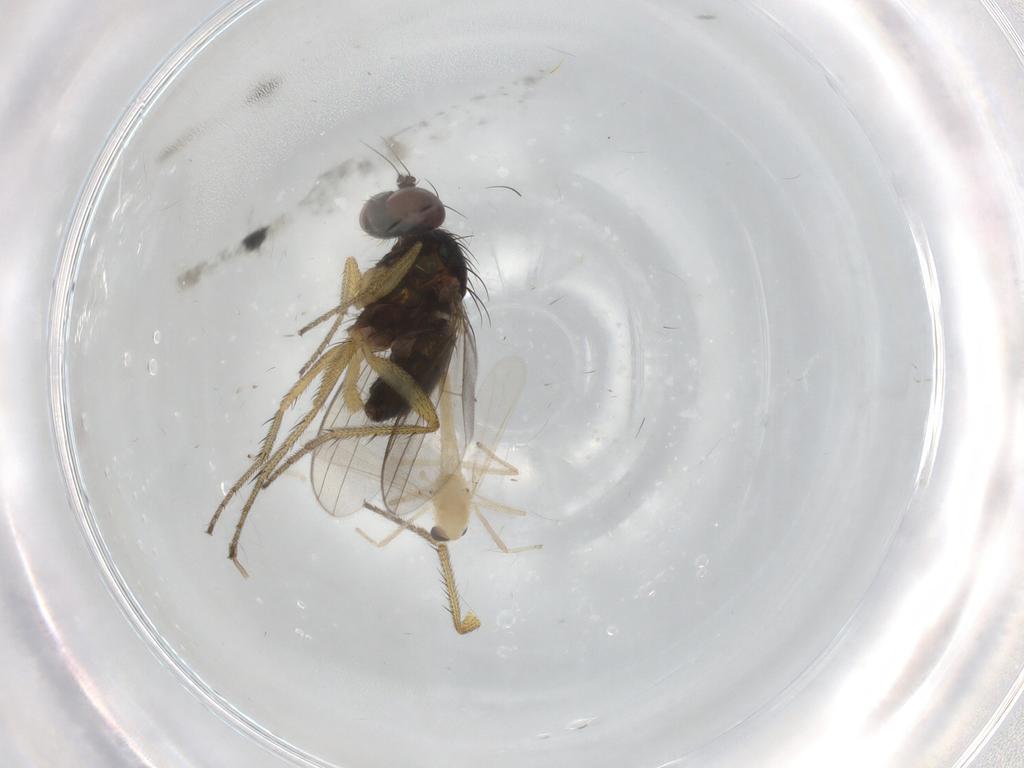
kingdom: Animalia
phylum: Arthropoda
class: Insecta
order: Diptera
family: Chironomidae
